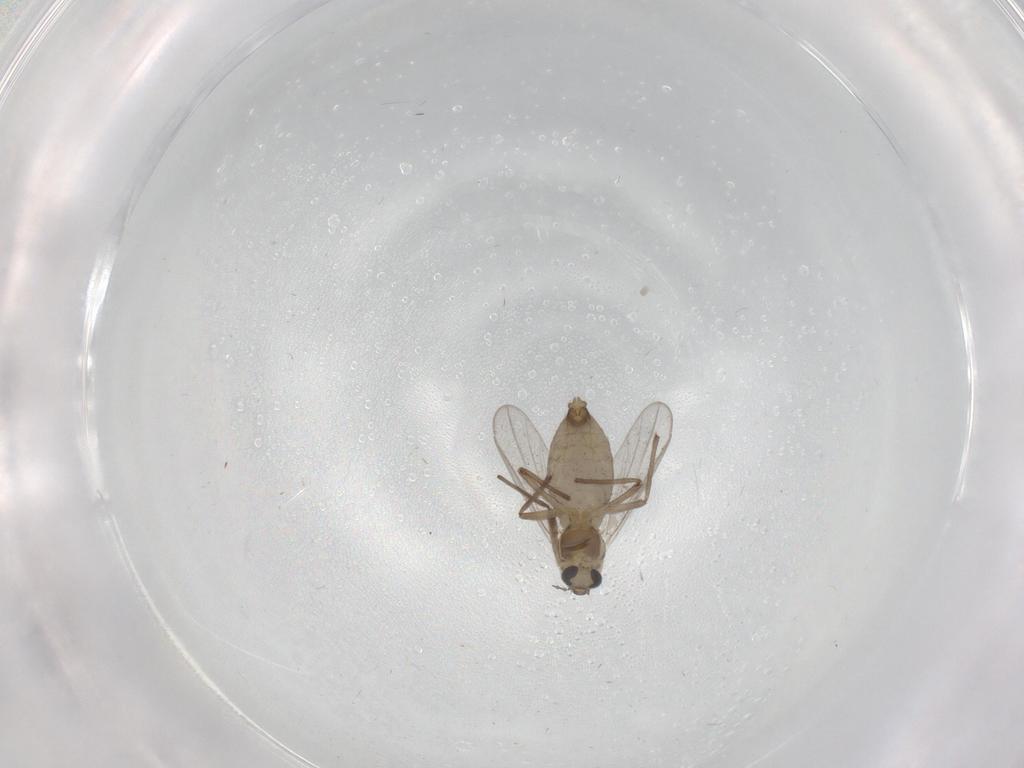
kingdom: Animalia
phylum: Arthropoda
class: Insecta
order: Diptera
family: Chironomidae
